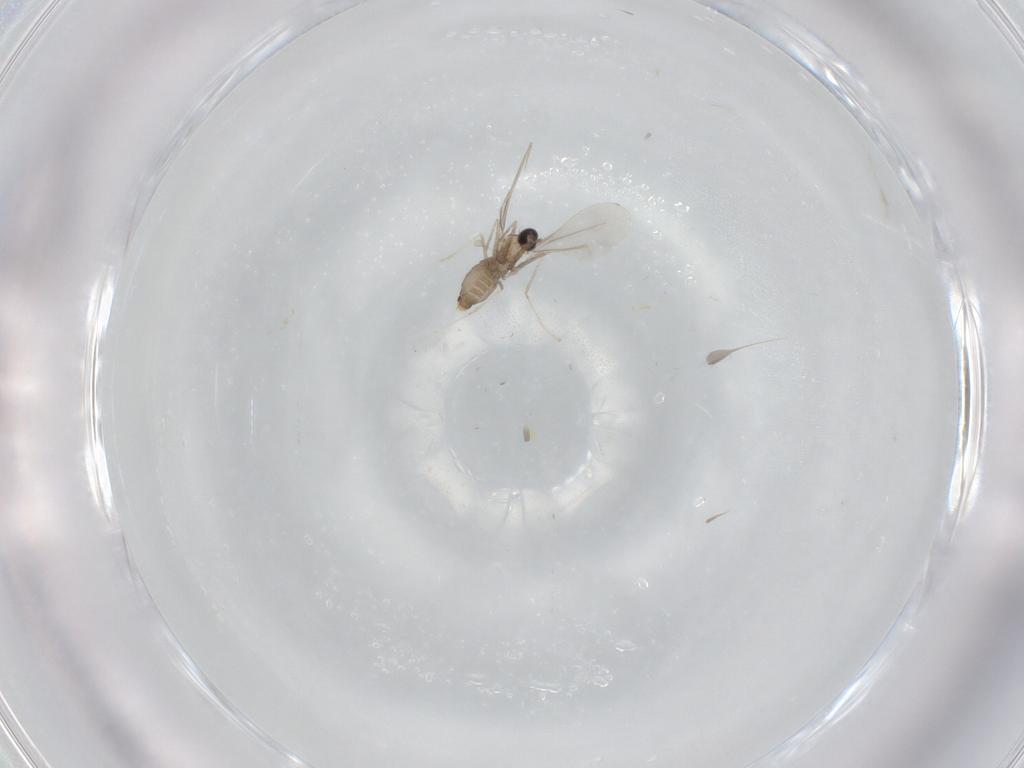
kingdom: Animalia
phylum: Arthropoda
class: Insecta
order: Diptera
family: Cecidomyiidae
